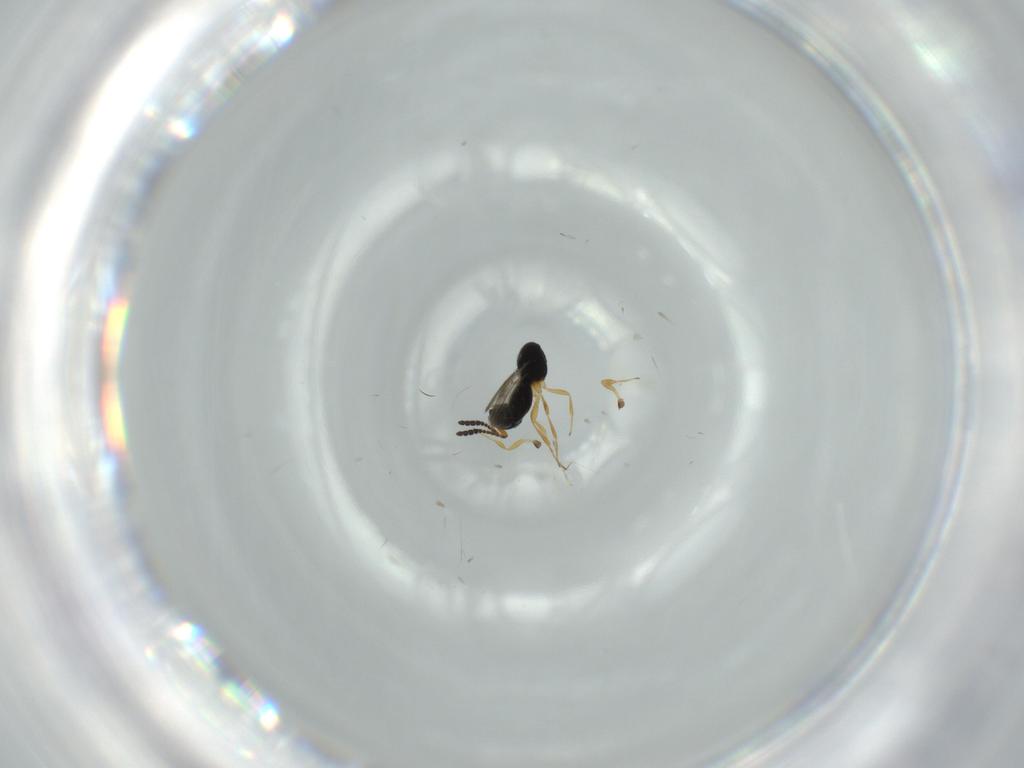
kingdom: Animalia
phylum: Arthropoda
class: Insecta
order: Hymenoptera
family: Scelionidae
